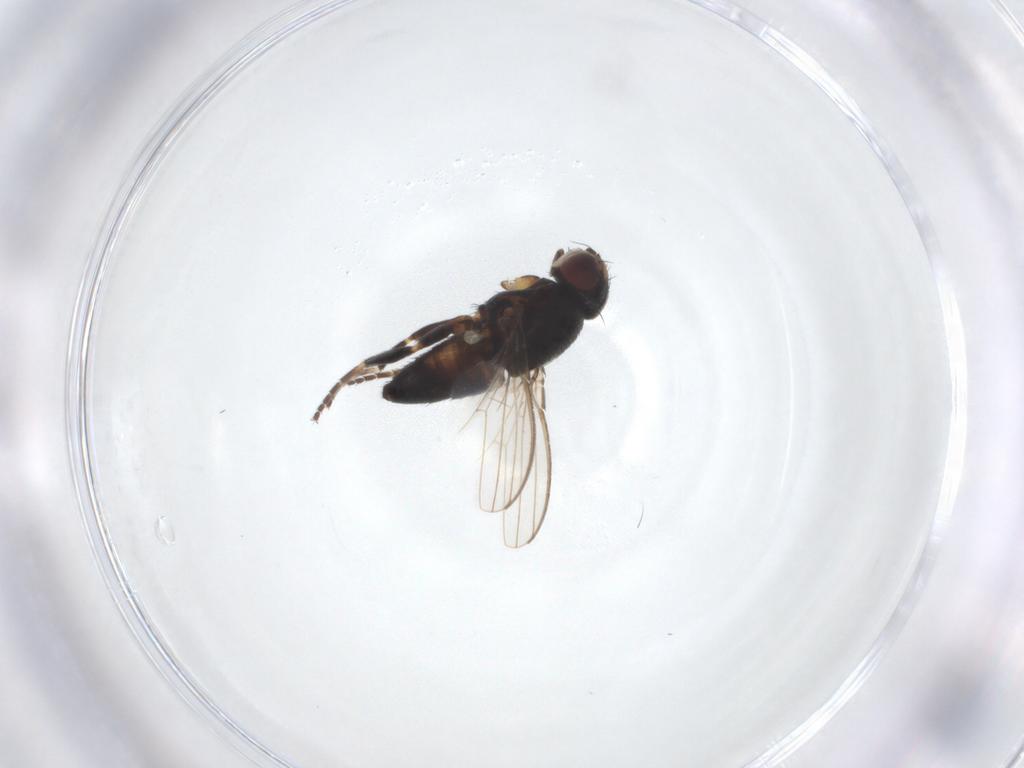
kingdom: Animalia
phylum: Arthropoda
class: Insecta
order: Diptera
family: Milichiidae
